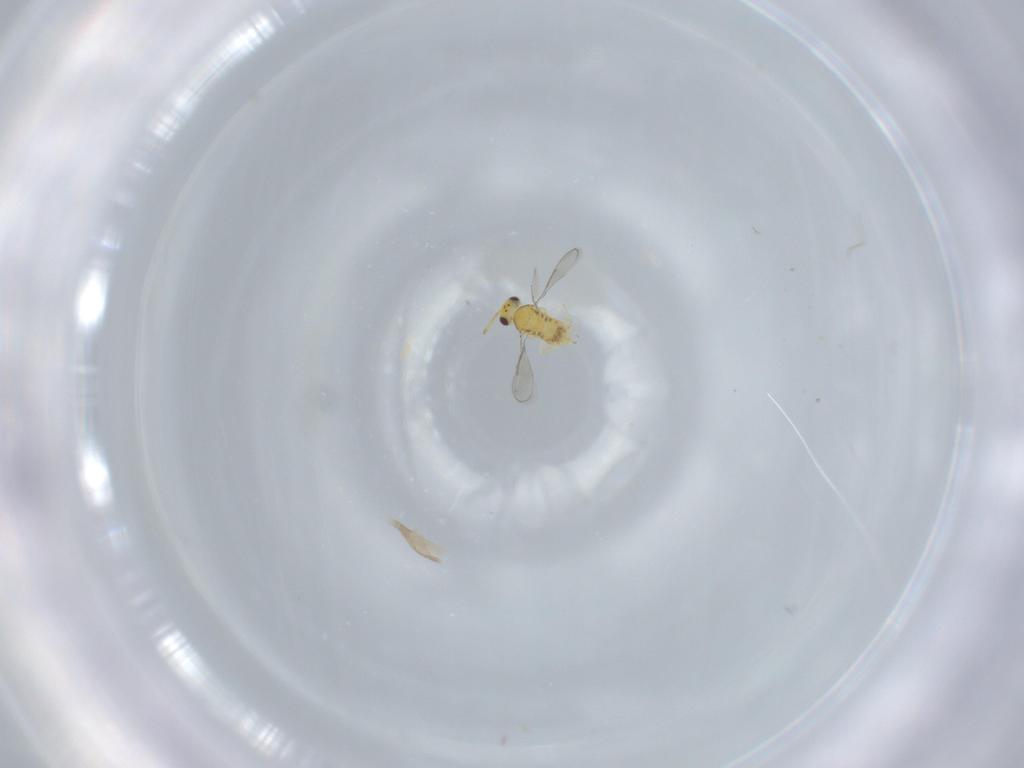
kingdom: Animalia
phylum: Arthropoda
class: Insecta
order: Hymenoptera
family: Aphelinidae
